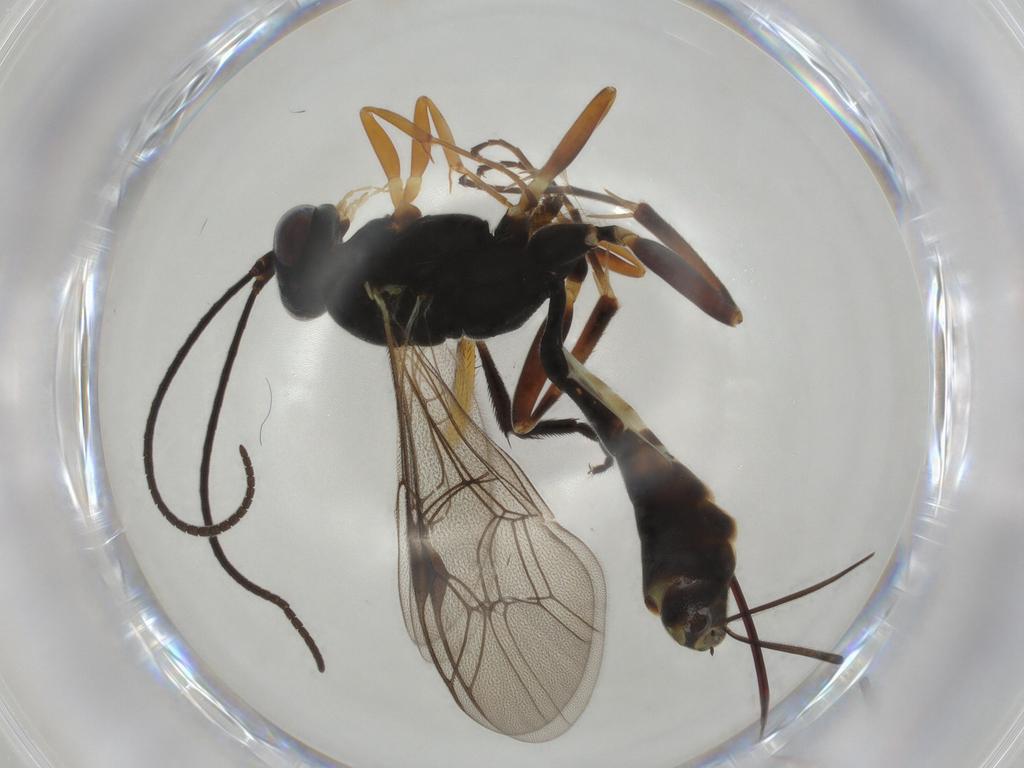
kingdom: Animalia
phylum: Arthropoda
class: Insecta
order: Hymenoptera
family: Ichneumonidae
